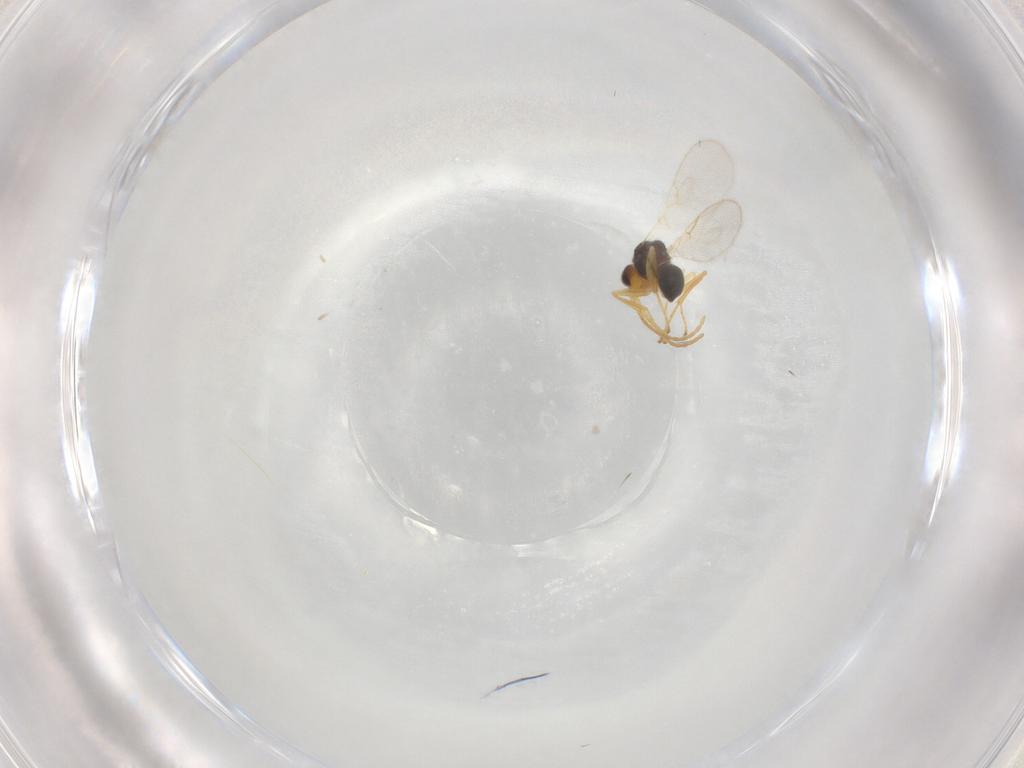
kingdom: Animalia
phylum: Arthropoda
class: Insecta
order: Hymenoptera
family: Figitidae
